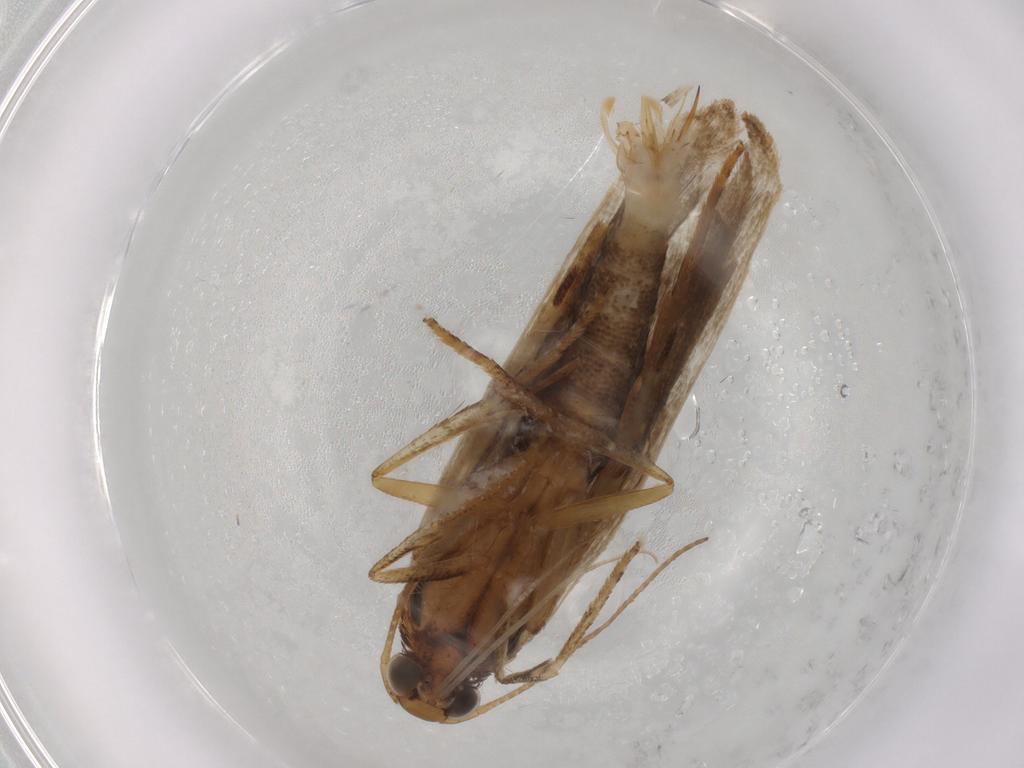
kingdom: Animalia
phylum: Arthropoda
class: Insecta
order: Lepidoptera
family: Gelechiidae
